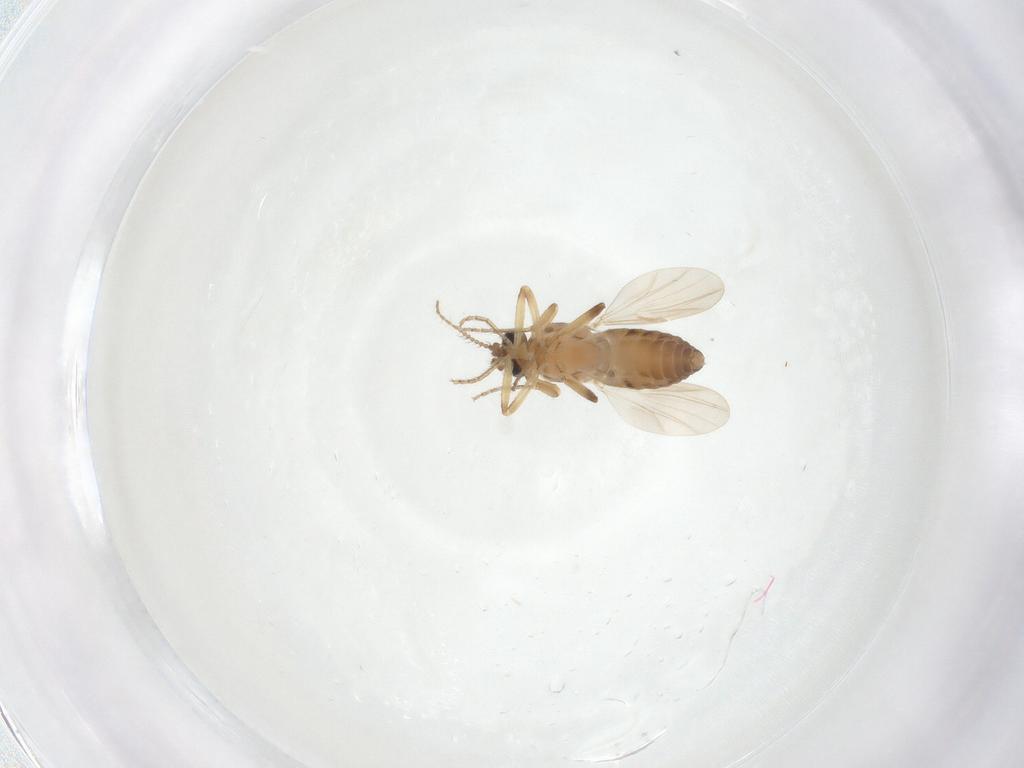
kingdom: Animalia
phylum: Arthropoda
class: Insecta
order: Diptera
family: Ceratopogonidae
